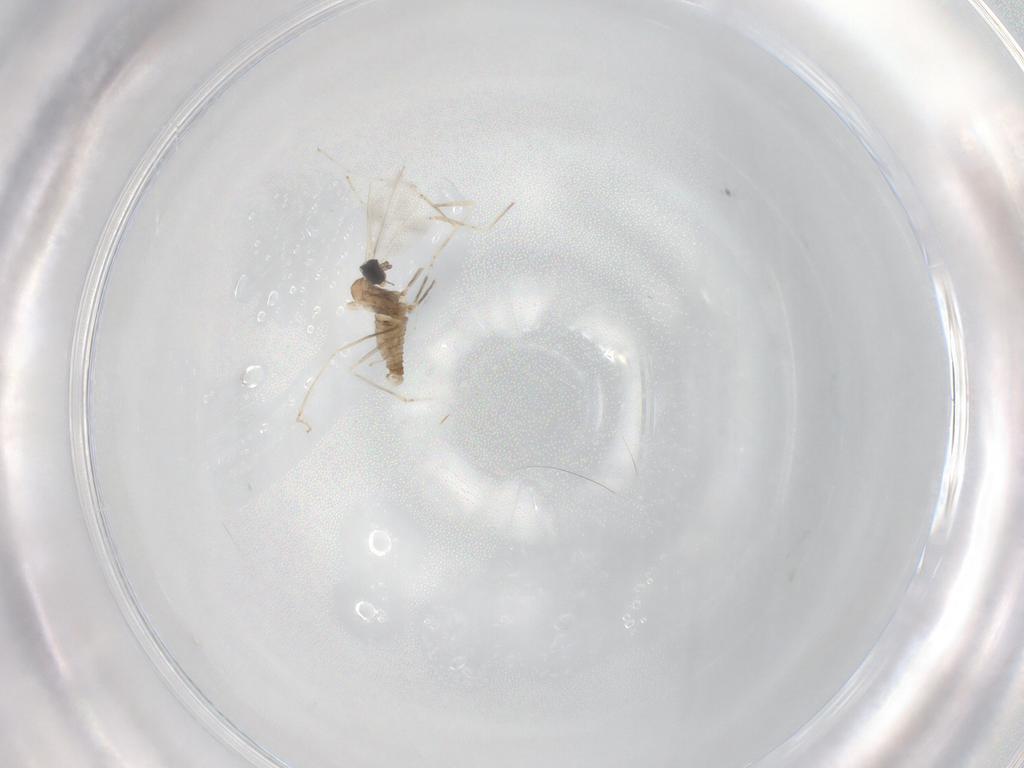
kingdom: Animalia
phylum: Arthropoda
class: Insecta
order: Diptera
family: Cecidomyiidae
